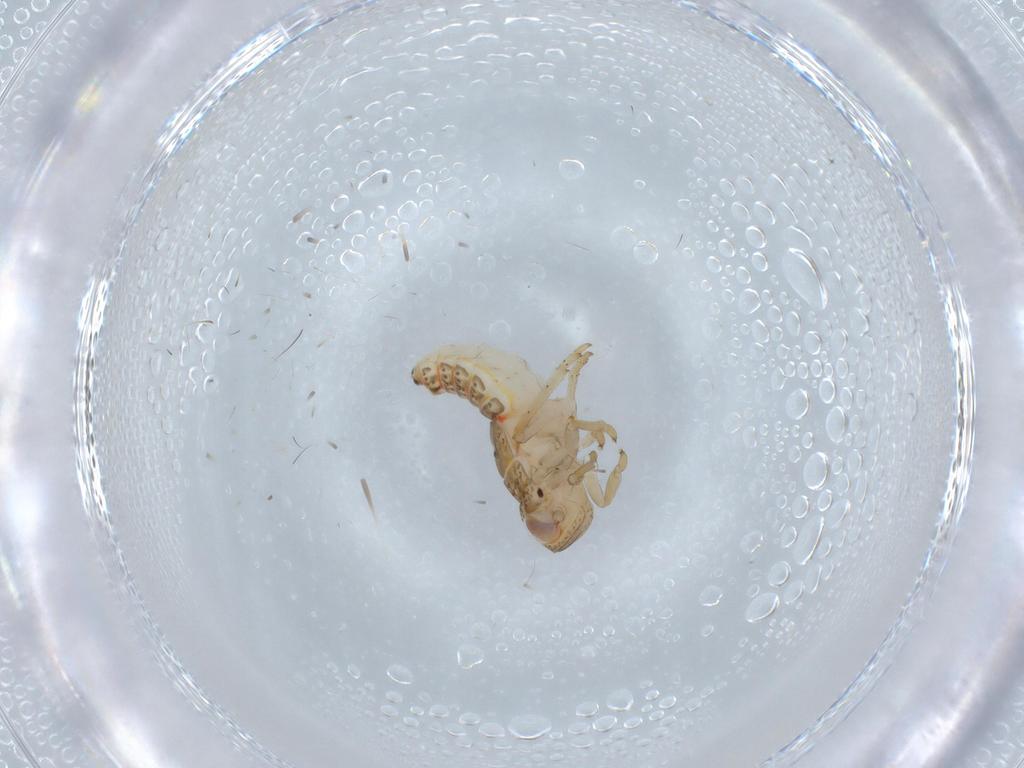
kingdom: Animalia
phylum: Arthropoda
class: Insecta
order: Hemiptera
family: Issidae
